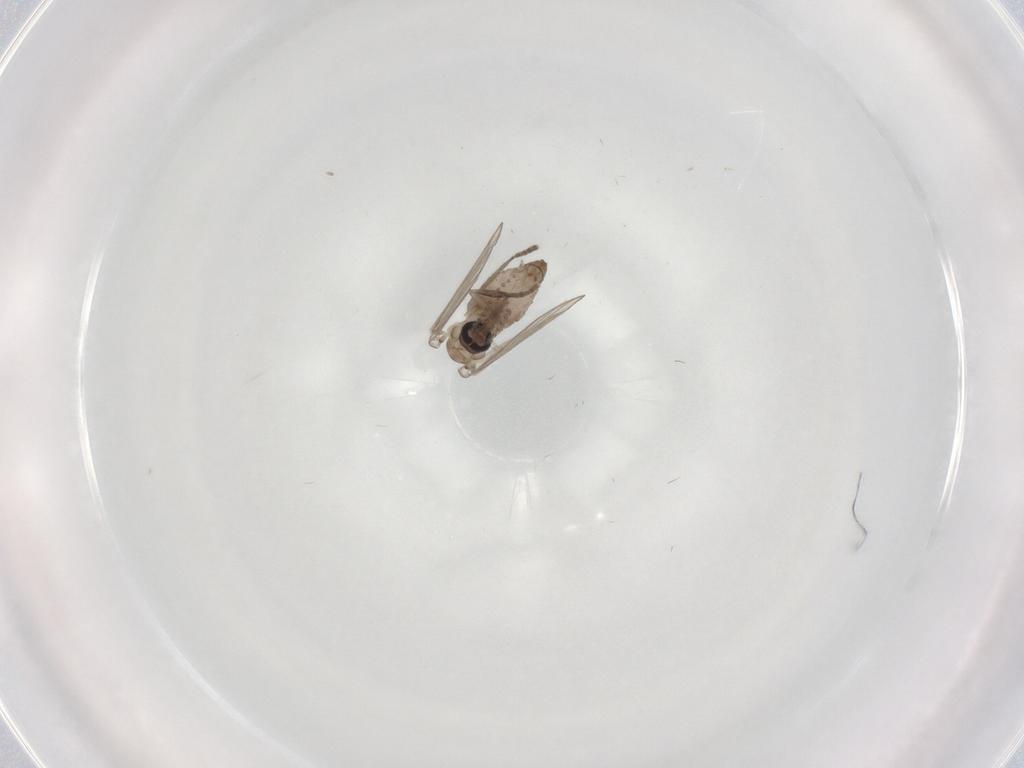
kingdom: Animalia
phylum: Arthropoda
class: Insecta
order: Diptera
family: Psychodidae
